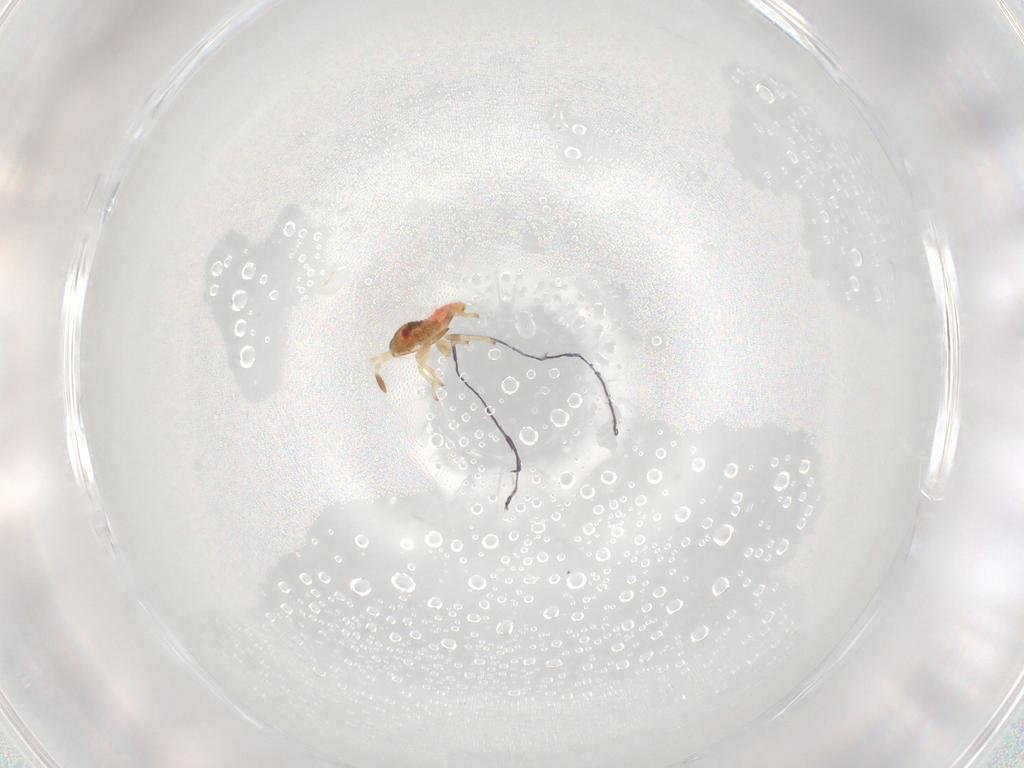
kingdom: Animalia
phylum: Arthropoda
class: Insecta
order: Hemiptera
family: Lygaeidae
